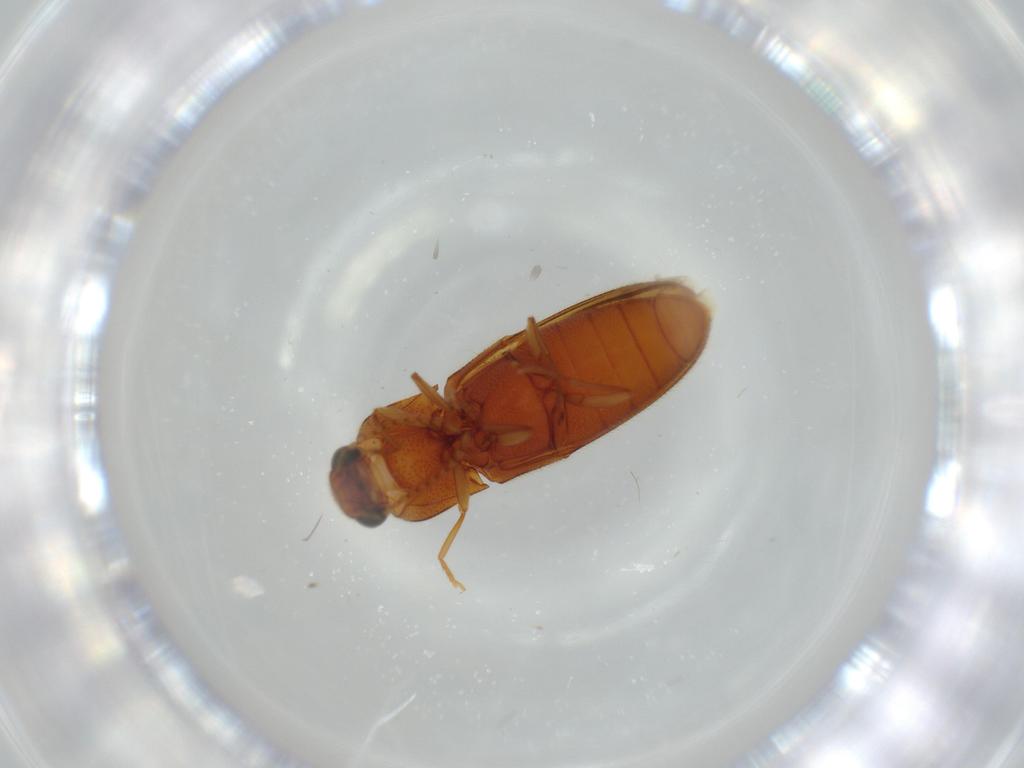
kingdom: Animalia
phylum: Arthropoda
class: Insecta
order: Coleoptera
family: Elateridae
